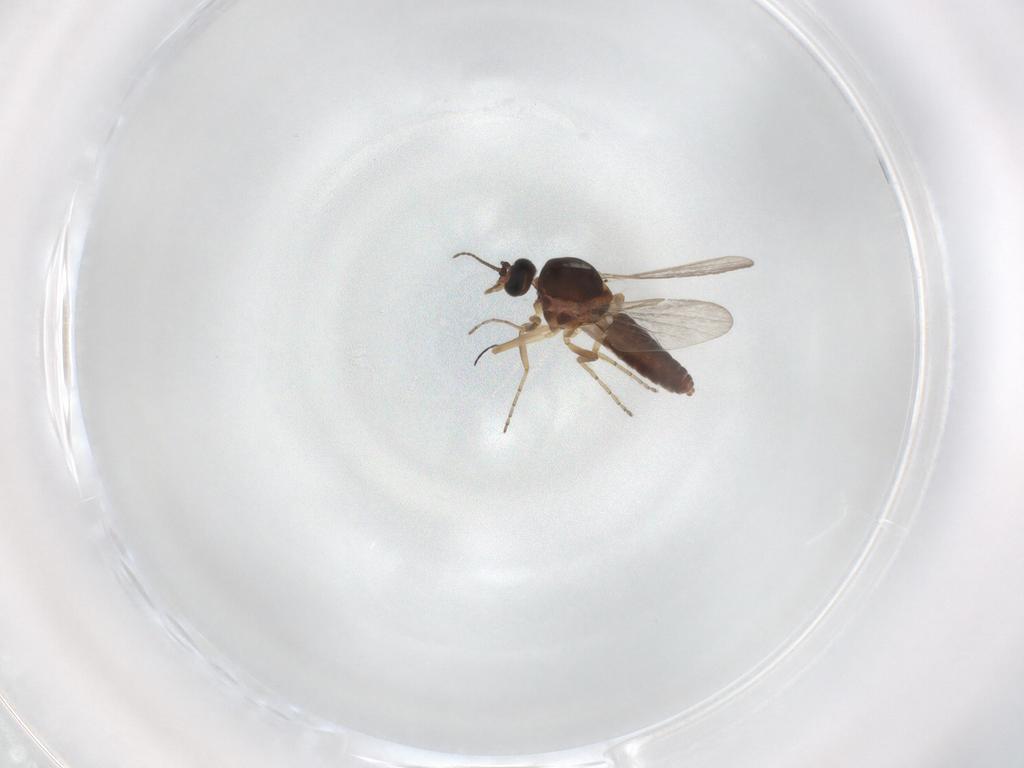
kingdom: Animalia
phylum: Arthropoda
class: Insecta
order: Diptera
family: Ceratopogonidae
